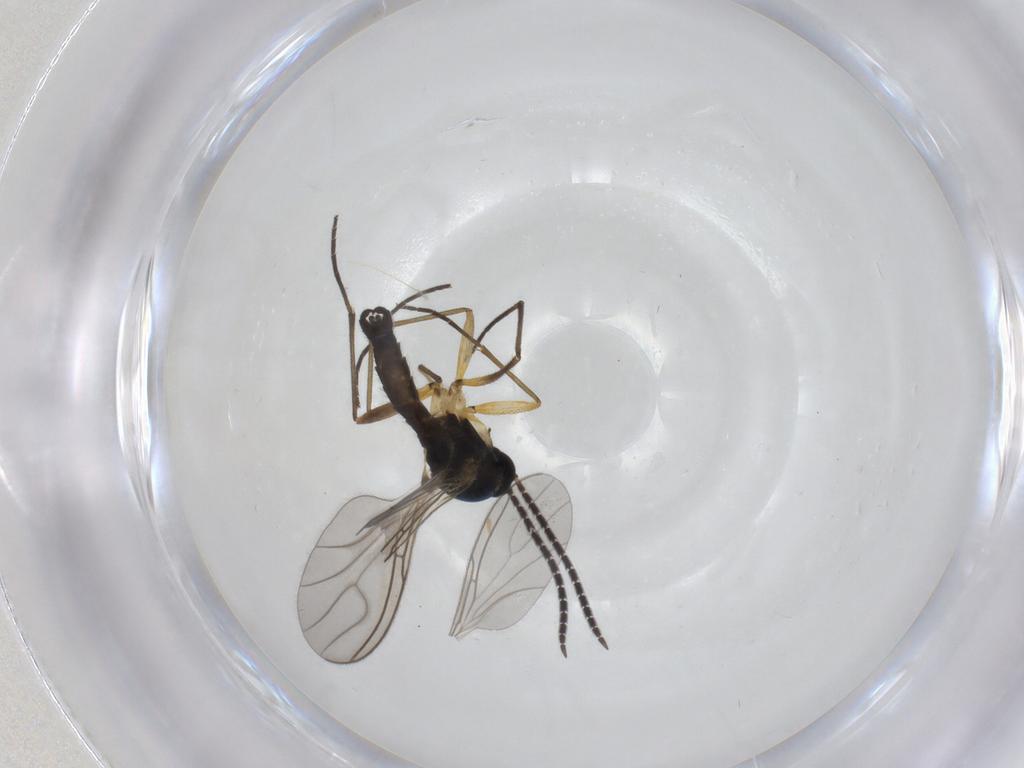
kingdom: Animalia
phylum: Arthropoda
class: Insecta
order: Diptera
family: Sciaridae
